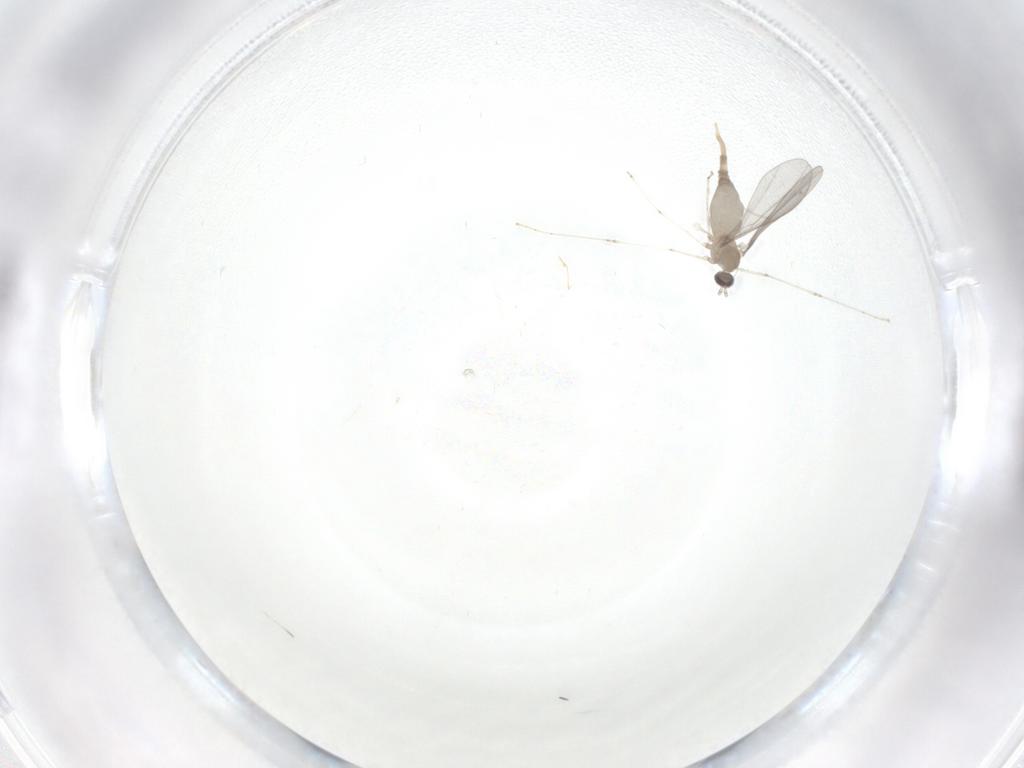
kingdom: Animalia
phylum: Arthropoda
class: Insecta
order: Diptera
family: Cecidomyiidae
